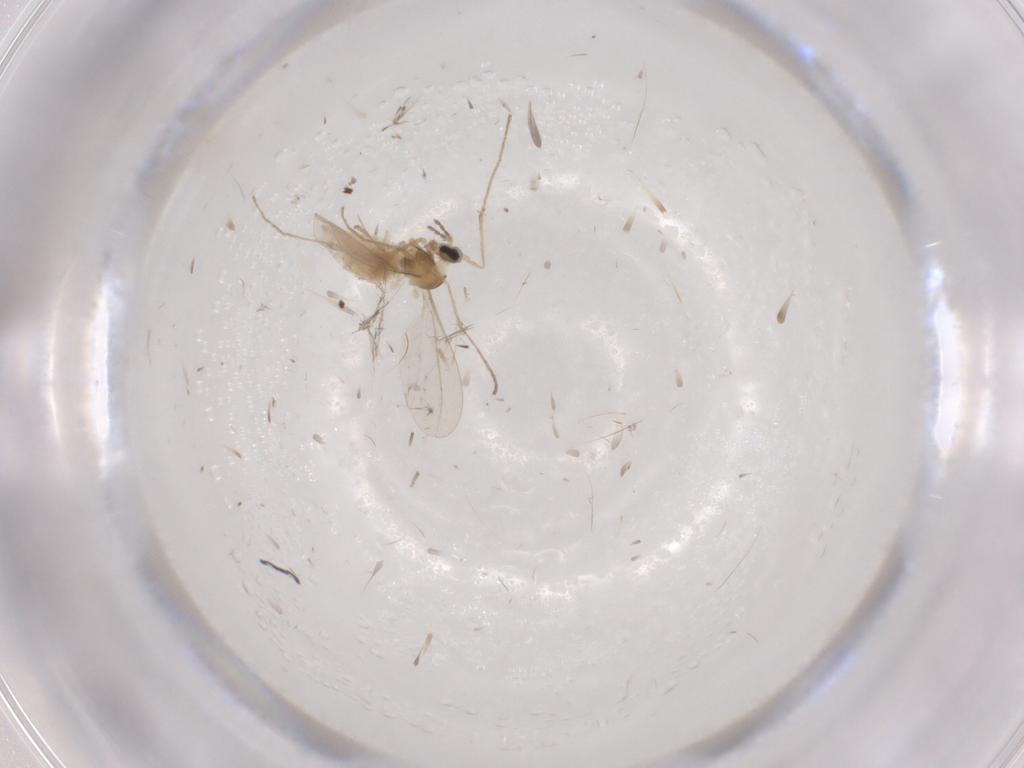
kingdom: Animalia
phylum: Arthropoda
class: Insecta
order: Diptera
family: Cecidomyiidae
